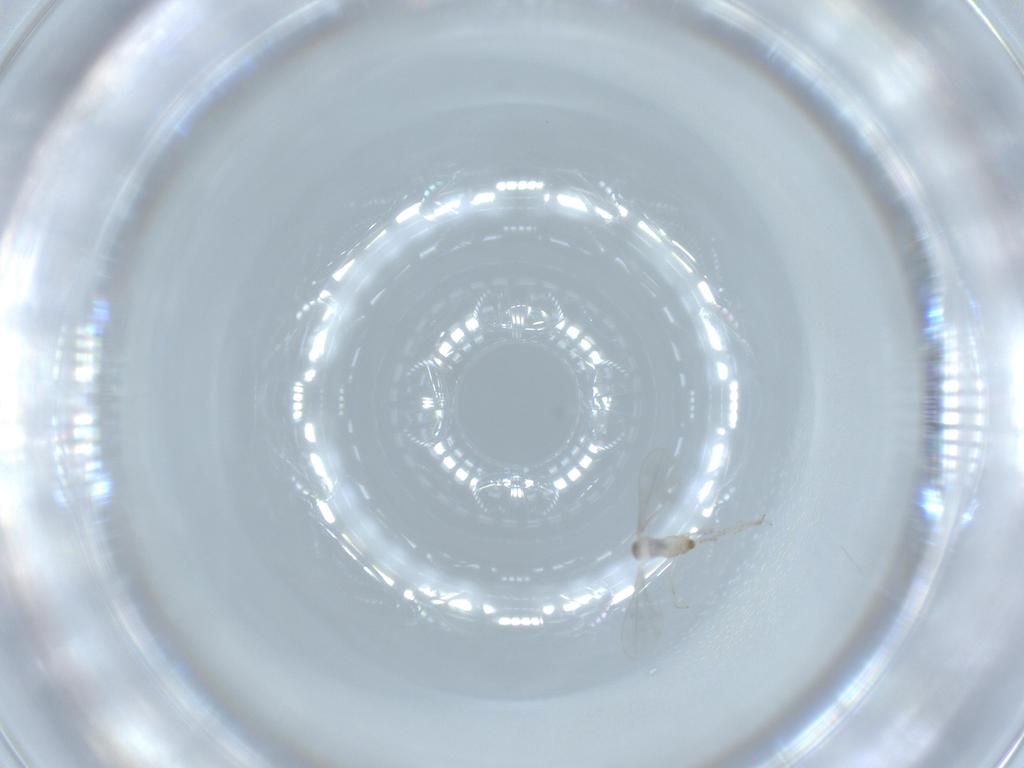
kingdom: Animalia
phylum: Arthropoda
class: Insecta
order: Diptera
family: Cecidomyiidae
